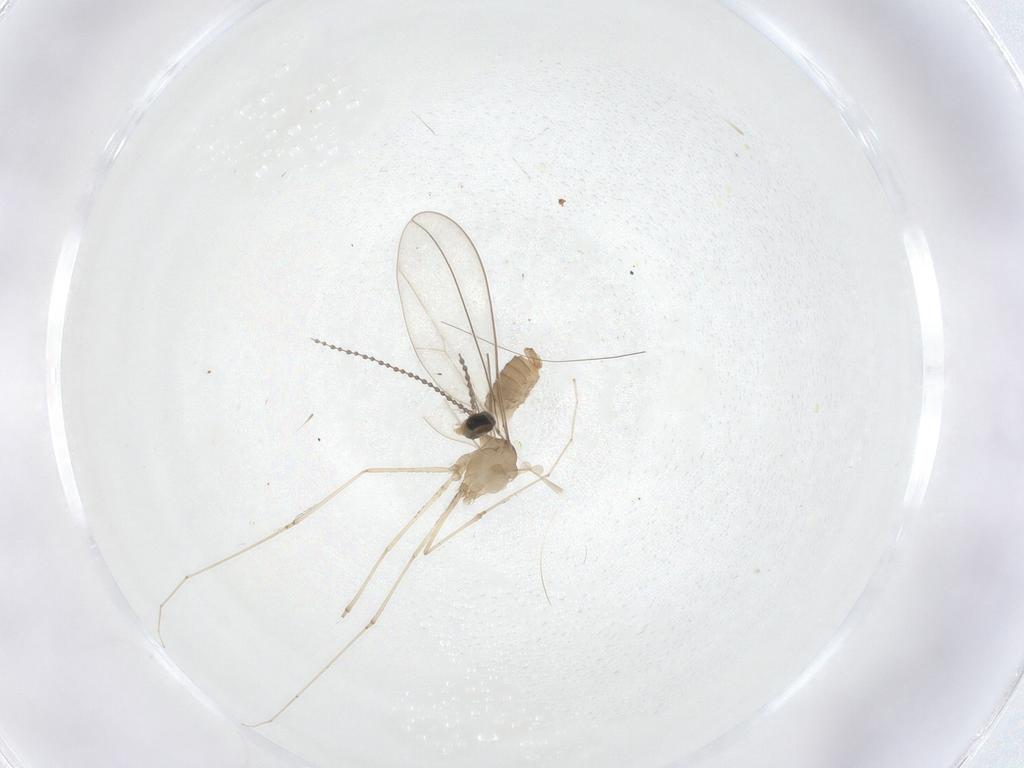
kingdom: Animalia
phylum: Arthropoda
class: Insecta
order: Diptera
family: Cecidomyiidae
